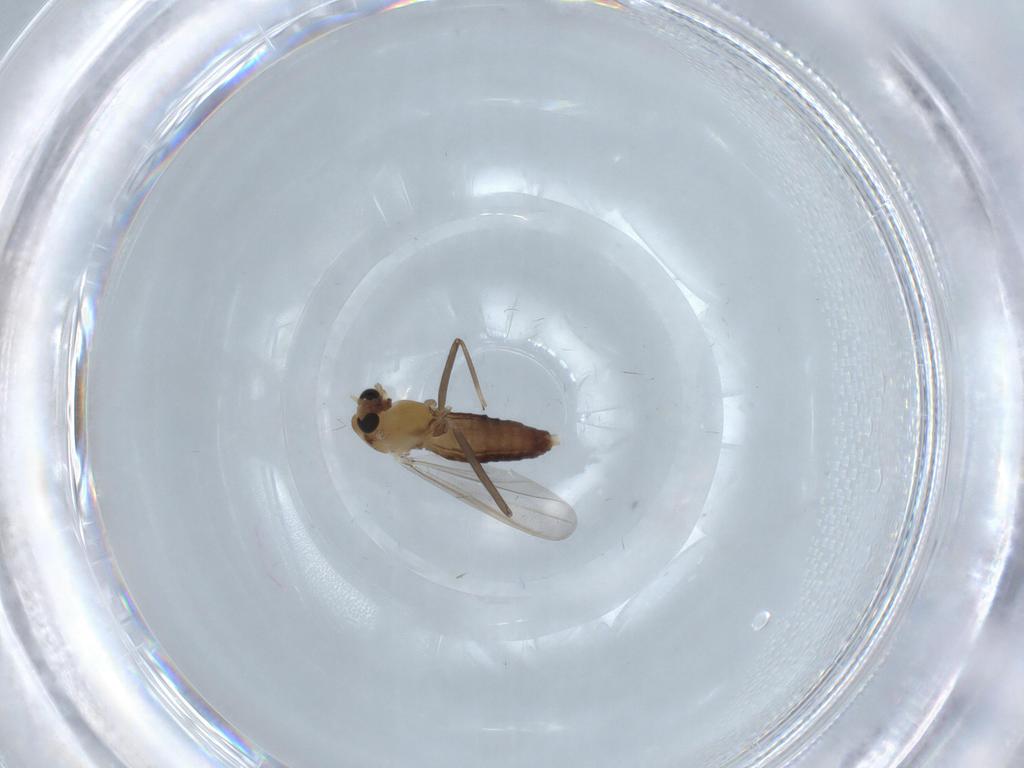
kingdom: Animalia
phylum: Arthropoda
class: Insecta
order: Diptera
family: Chironomidae
